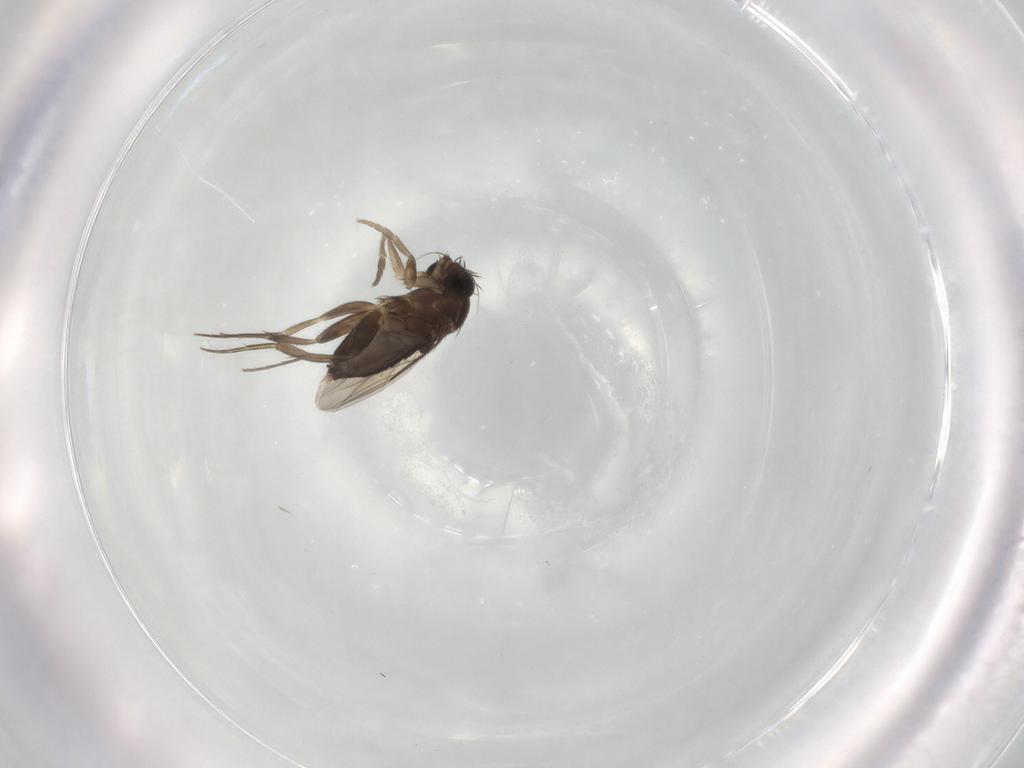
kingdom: Animalia
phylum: Arthropoda
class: Insecta
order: Diptera
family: Phoridae
